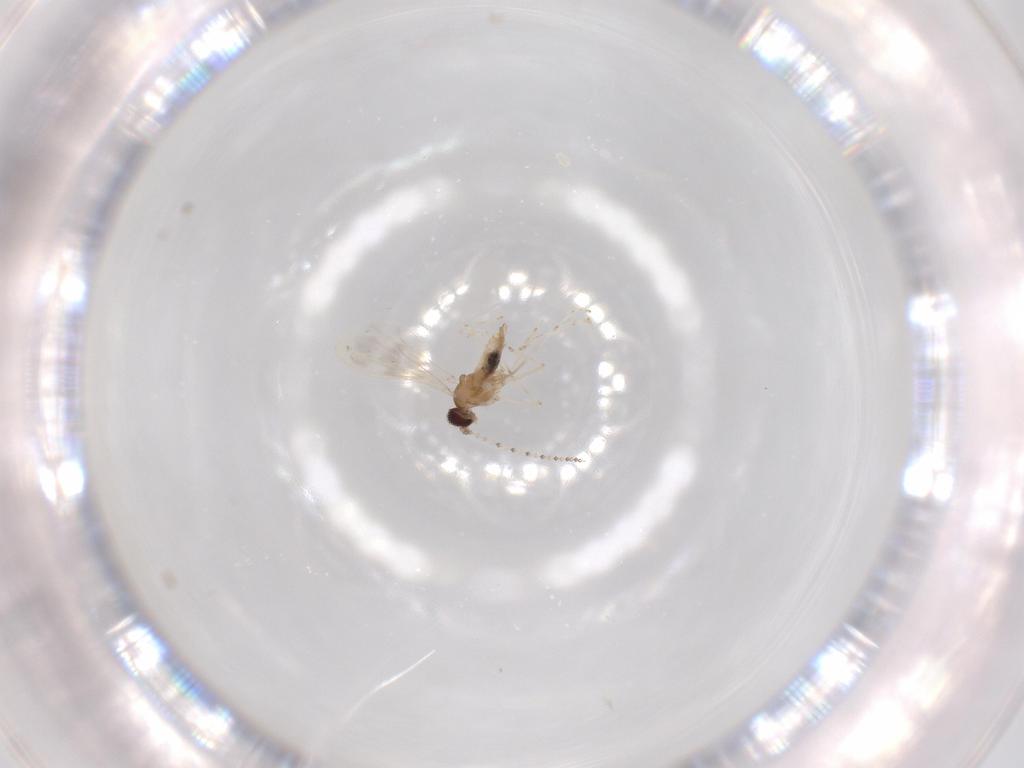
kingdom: Animalia
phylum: Arthropoda
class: Insecta
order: Diptera
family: Cecidomyiidae
